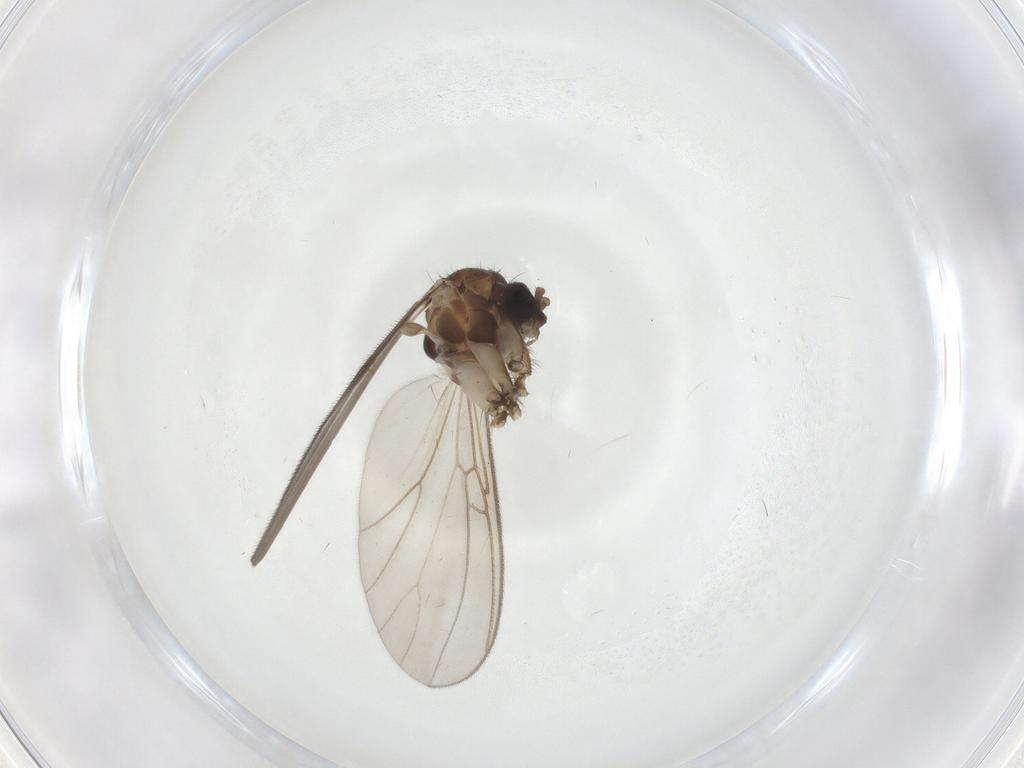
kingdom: Animalia
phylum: Arthropoda
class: Insecta
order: Diptera
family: Mycetophilidae
